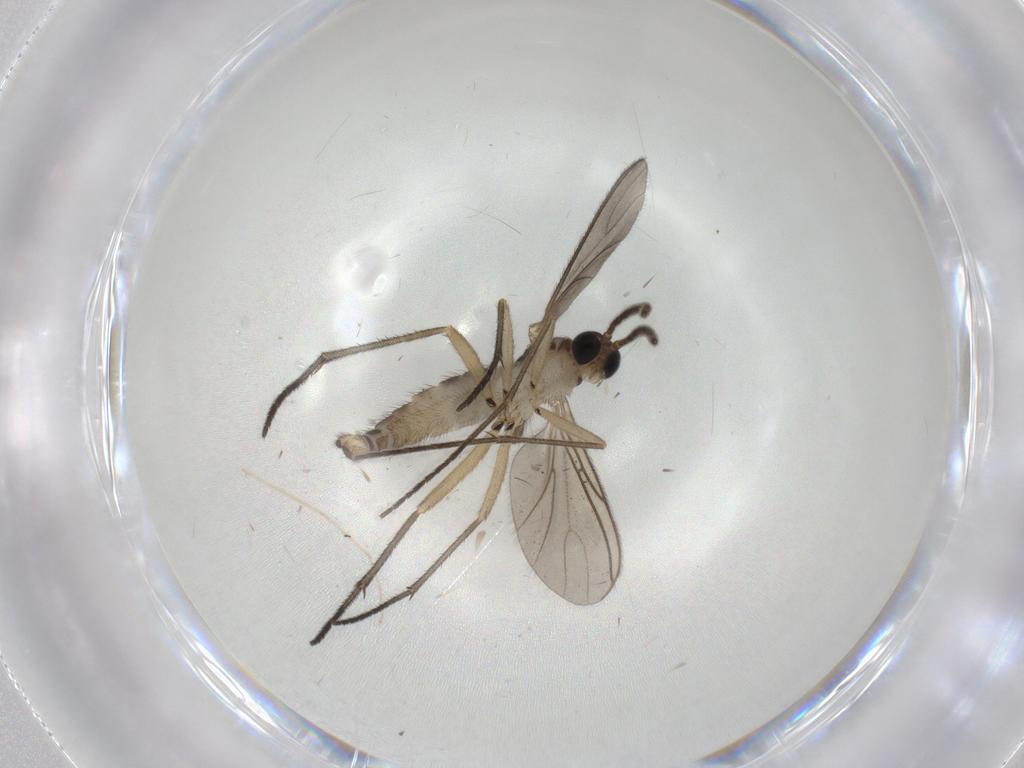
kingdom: Animalia
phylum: Arthropoda
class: Insecta
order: Diptera
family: Sciaridae
